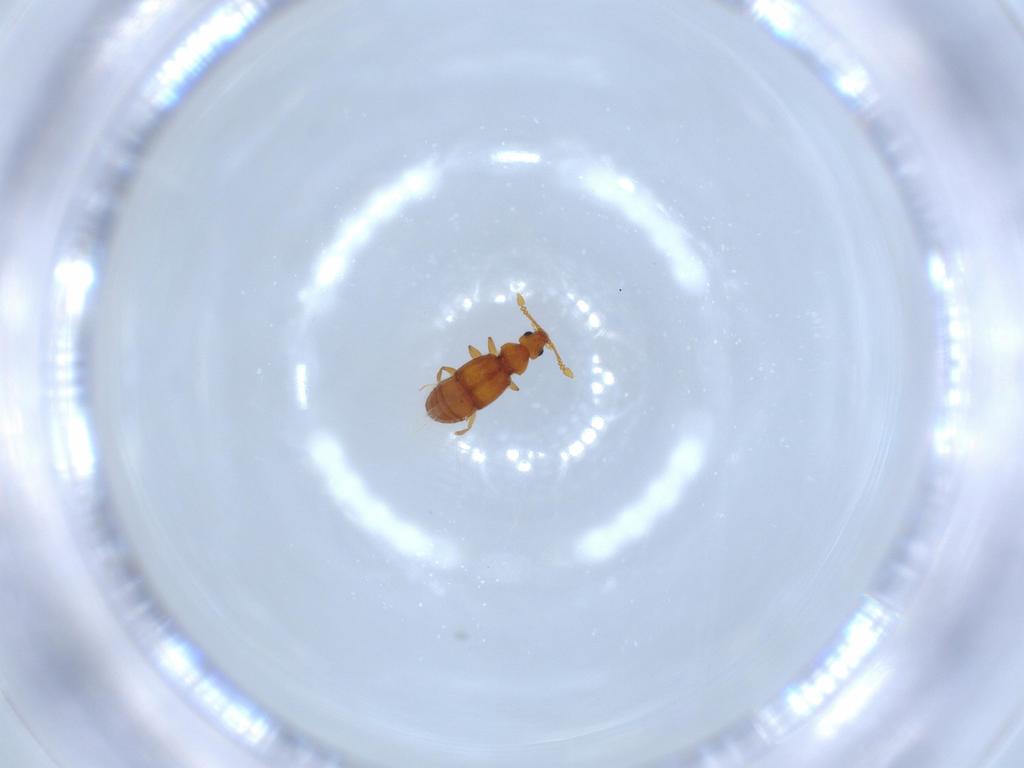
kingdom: Animalia
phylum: Arthropoda
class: Insecta
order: Coleoptera
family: Staphylinidae
